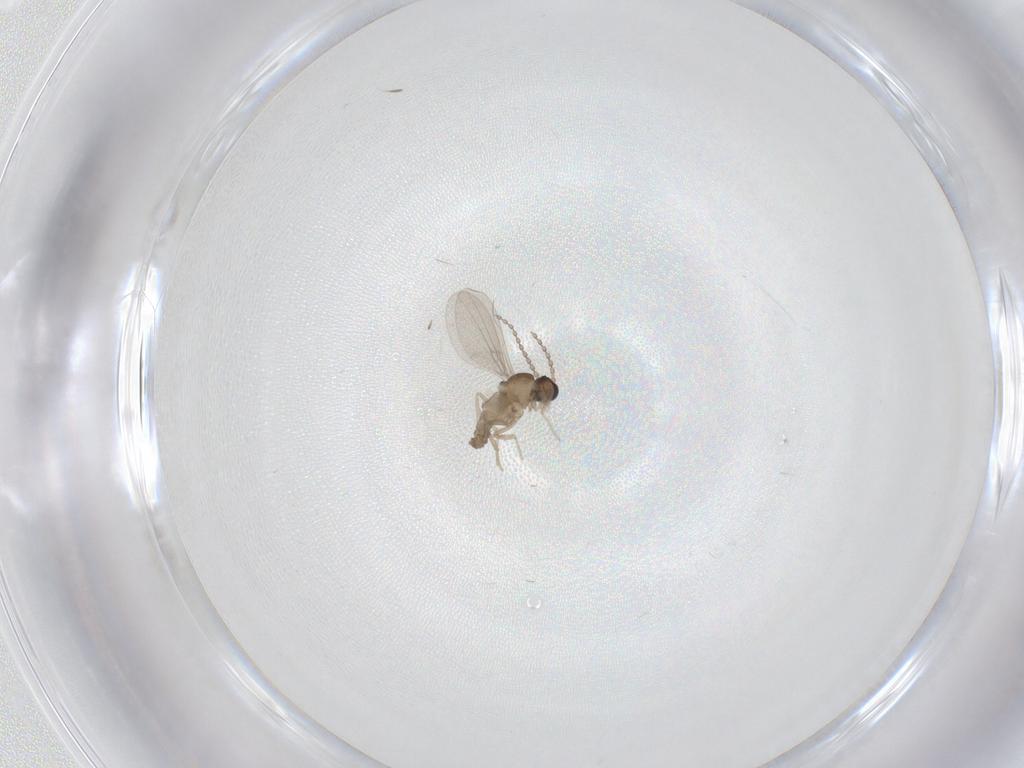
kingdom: Animalia
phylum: Arthropoda
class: Insecta
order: Diptera
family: Cecidomyiidae
